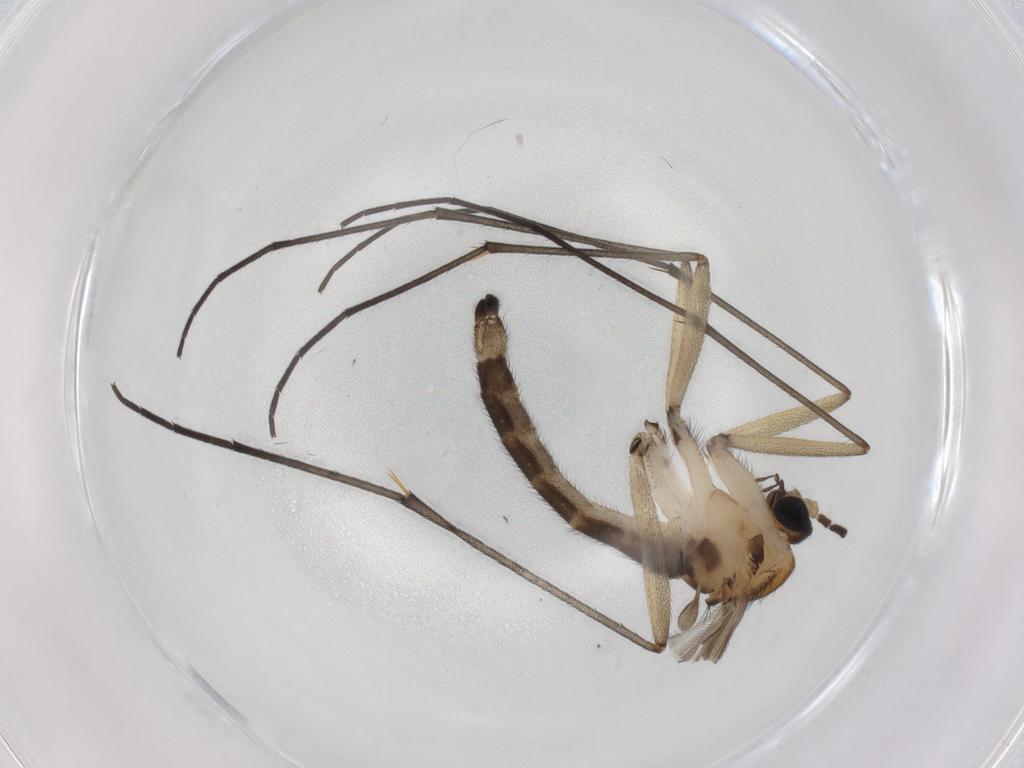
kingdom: Animalia
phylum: Arthropoda
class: Insecta
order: Diptera
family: Sciaridae
